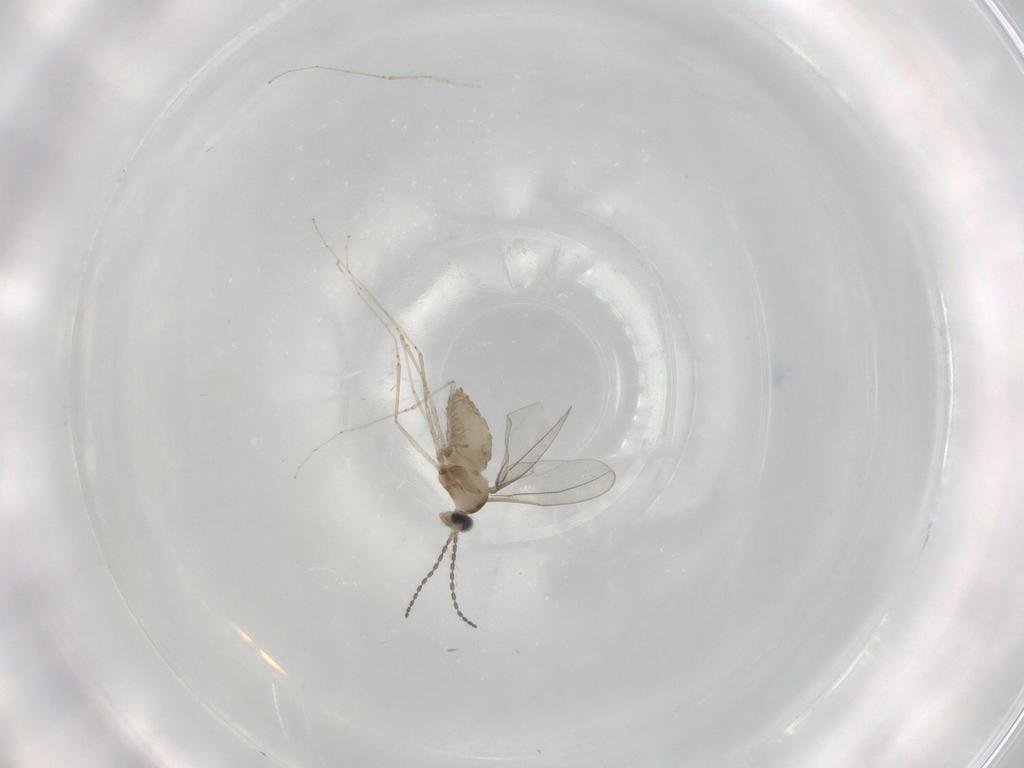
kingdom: Animalia
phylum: Arthropoda
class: Insecta
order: Diptera
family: Cecidomyiidae
